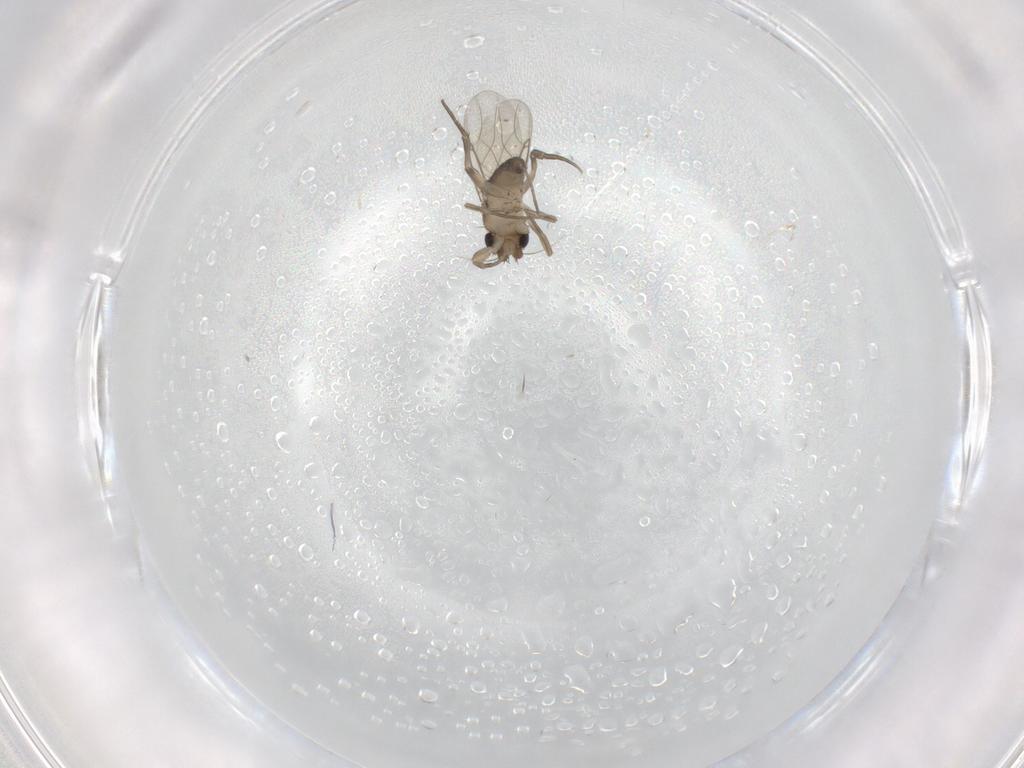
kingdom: Animalia
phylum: Arthropoda
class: Insecta
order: Diptera
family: Phoridae
